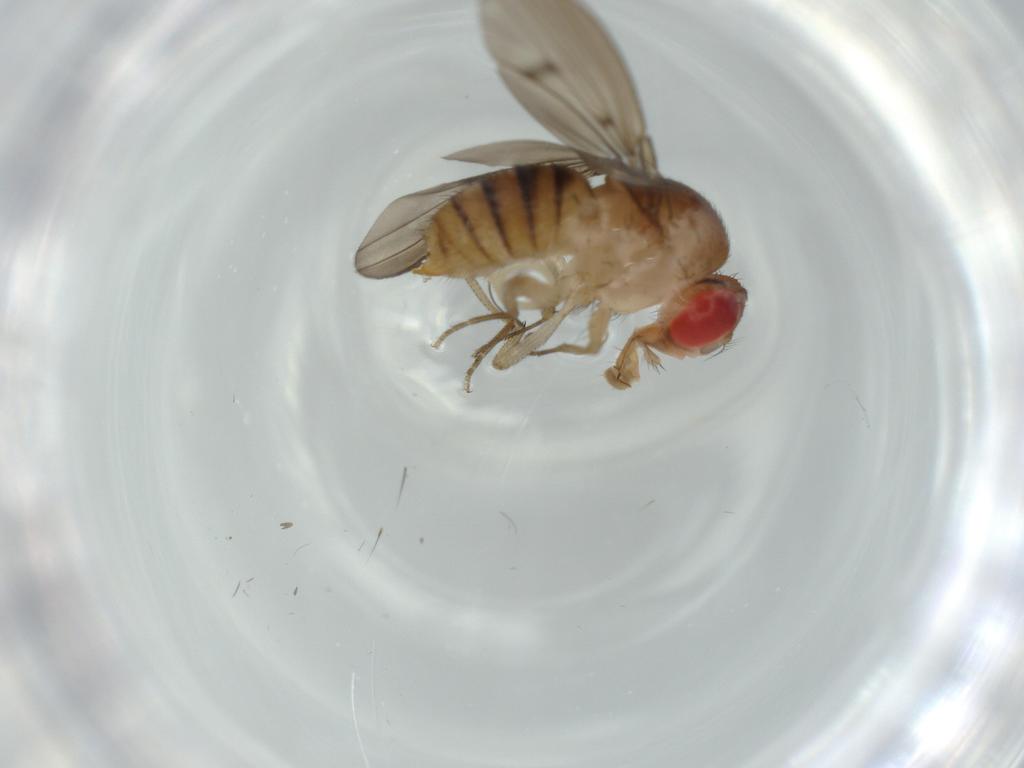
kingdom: Animalia
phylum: Arthropoda
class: Insecta
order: Diptera
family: Drosophilidae
